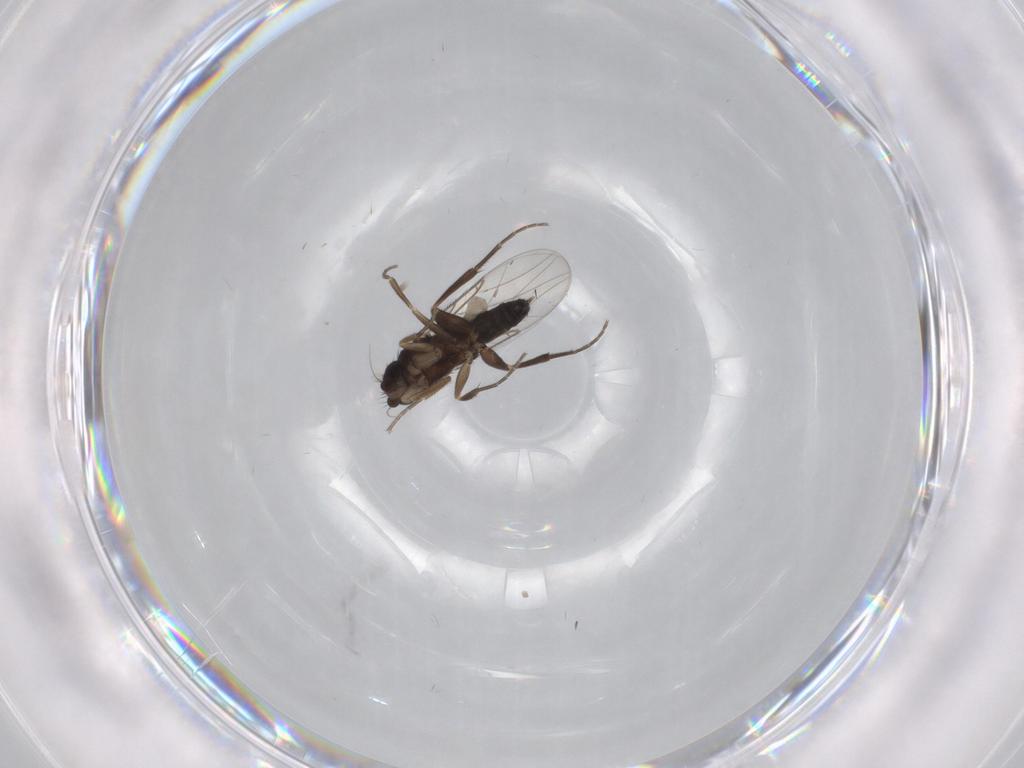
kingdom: Animalia
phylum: Arthropoda
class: Insecta
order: Diptera
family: Phoridae
